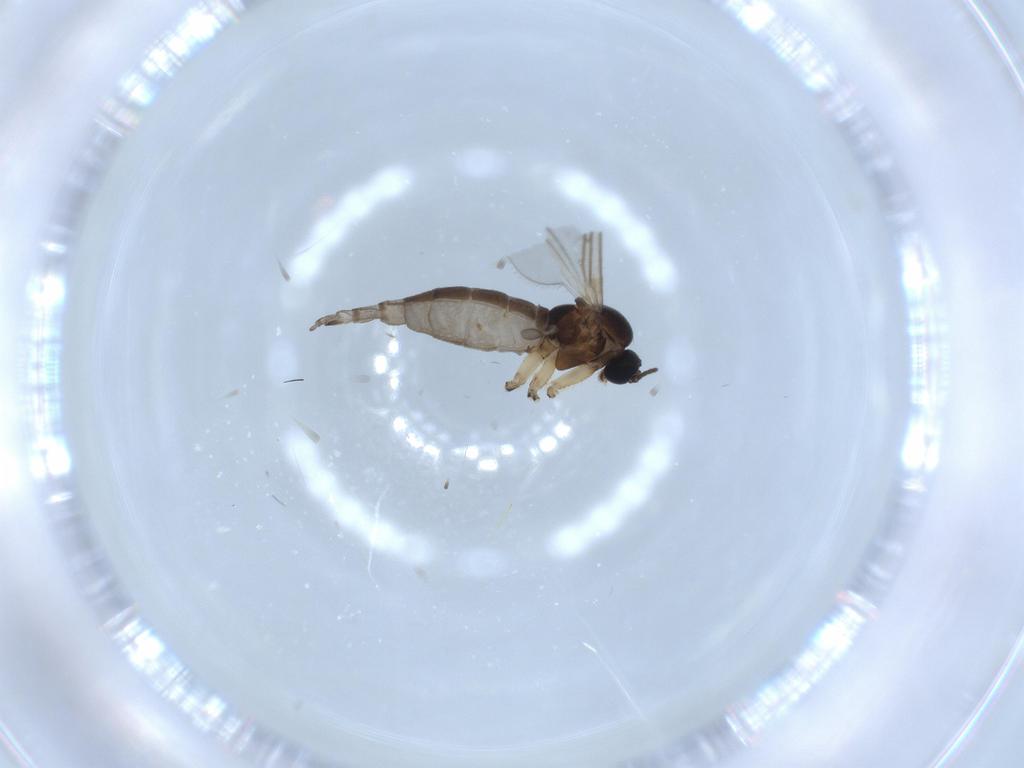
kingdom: Animalia
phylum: Arthropoda
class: Insecta
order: Diptera
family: Sciaridae
